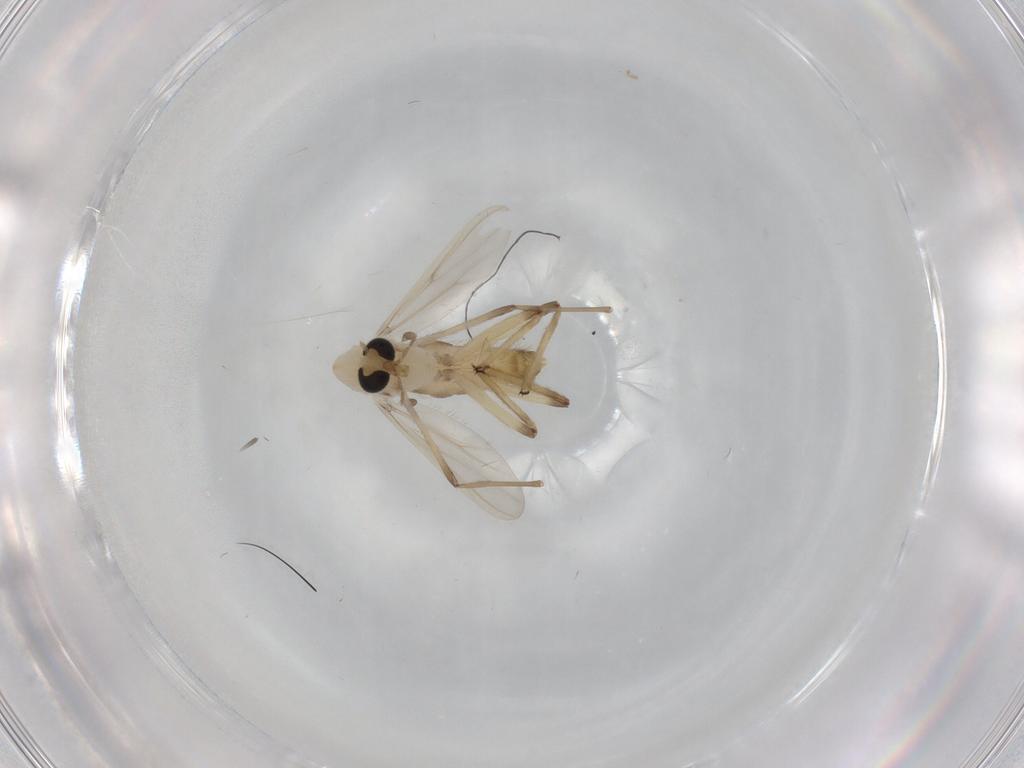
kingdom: Animalia
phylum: Arthropoda
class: Insecta
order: Diptera
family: Chironomidae
